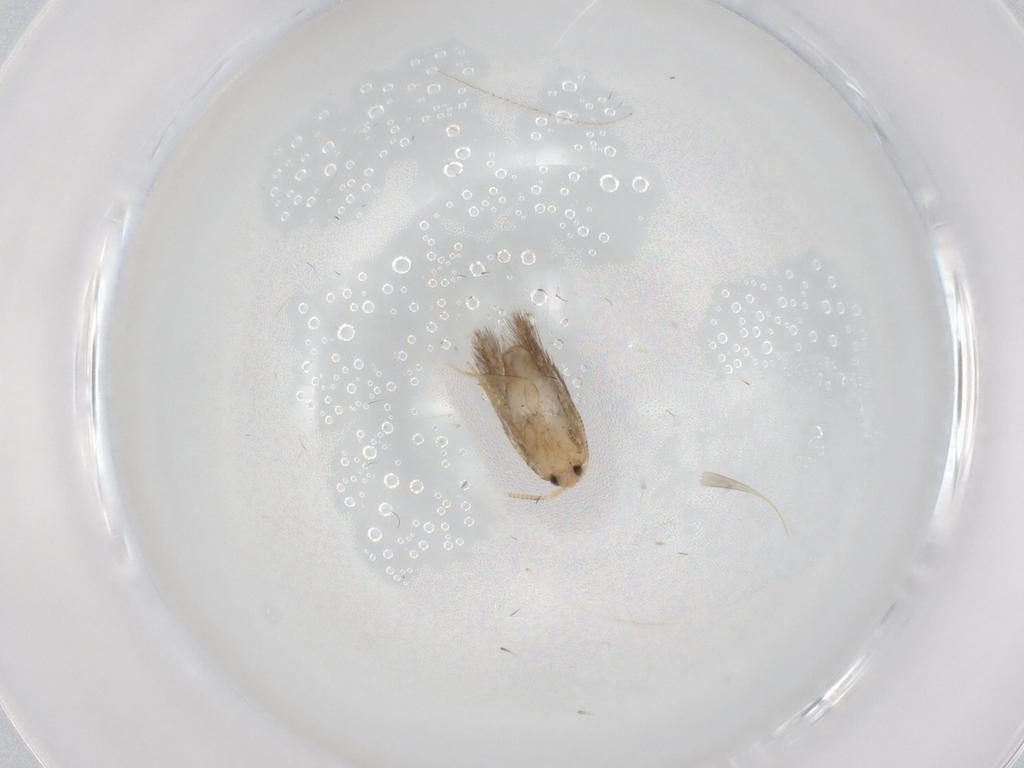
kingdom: Animalia
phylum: Arthropoda
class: Insecta
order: Lepidoptera
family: Nepticulidae
